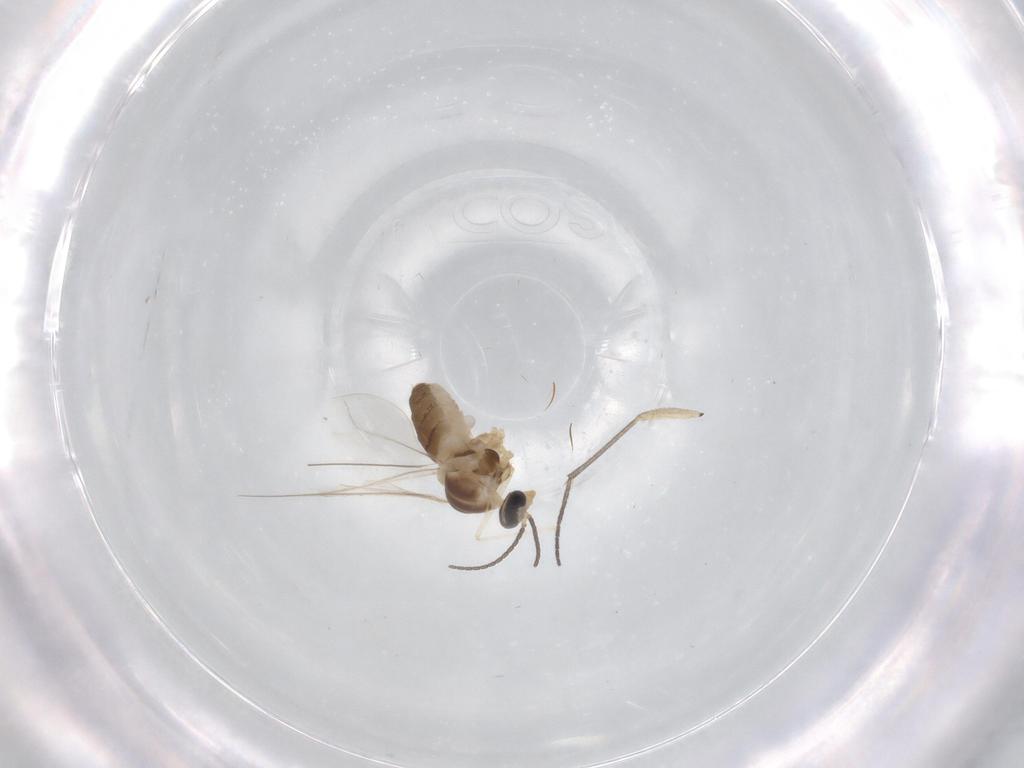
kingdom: Animalia
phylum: Arthropoda
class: Insecta
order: Diptera
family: Cecidomyiidae
